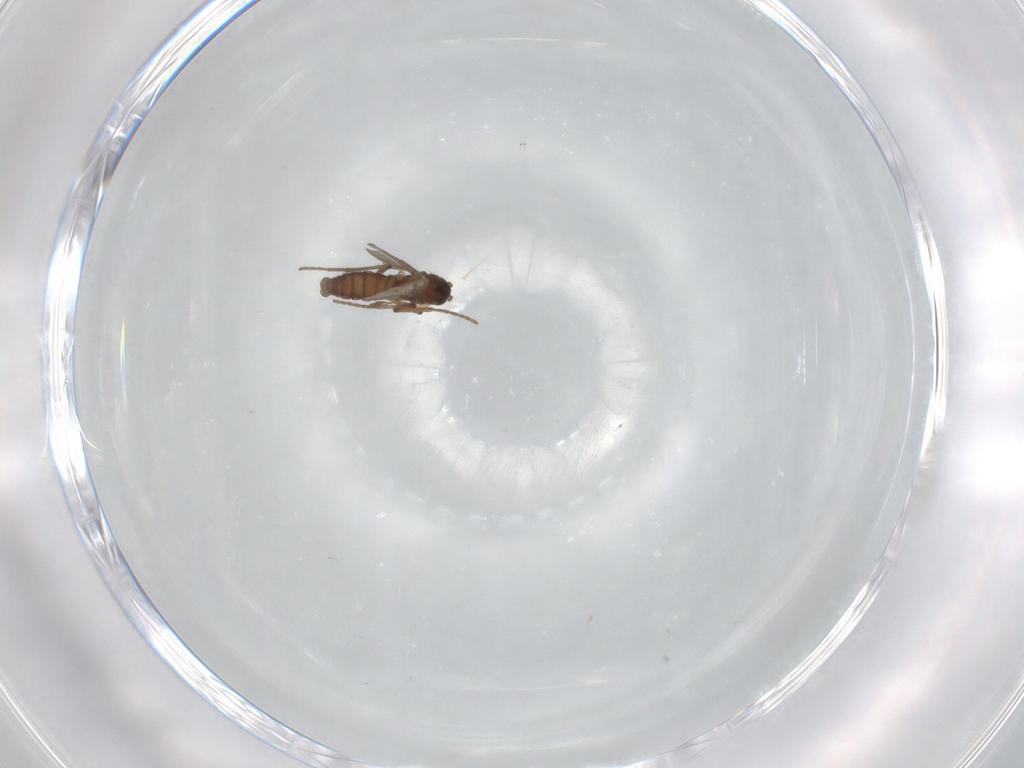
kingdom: Animalia
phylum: Arthropoda
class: Insecta
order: Diptera
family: Ceratopogonidae
